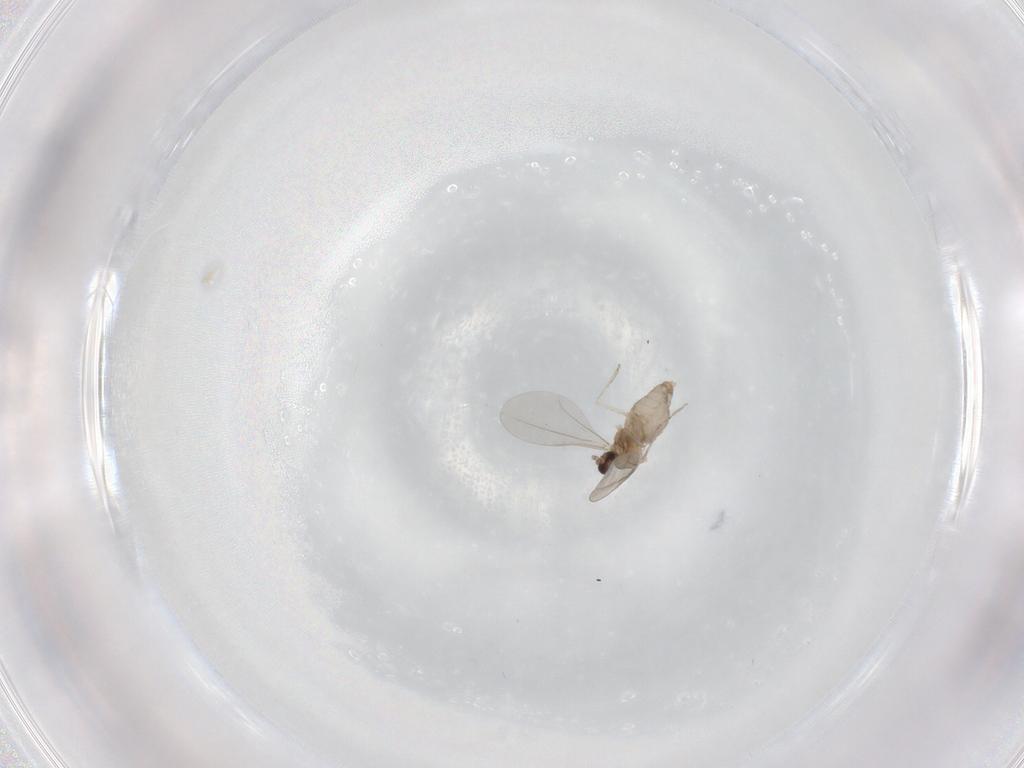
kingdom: Animalia
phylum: Arthropoda
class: Insecta
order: Diptera
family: Cecidomyiidae
